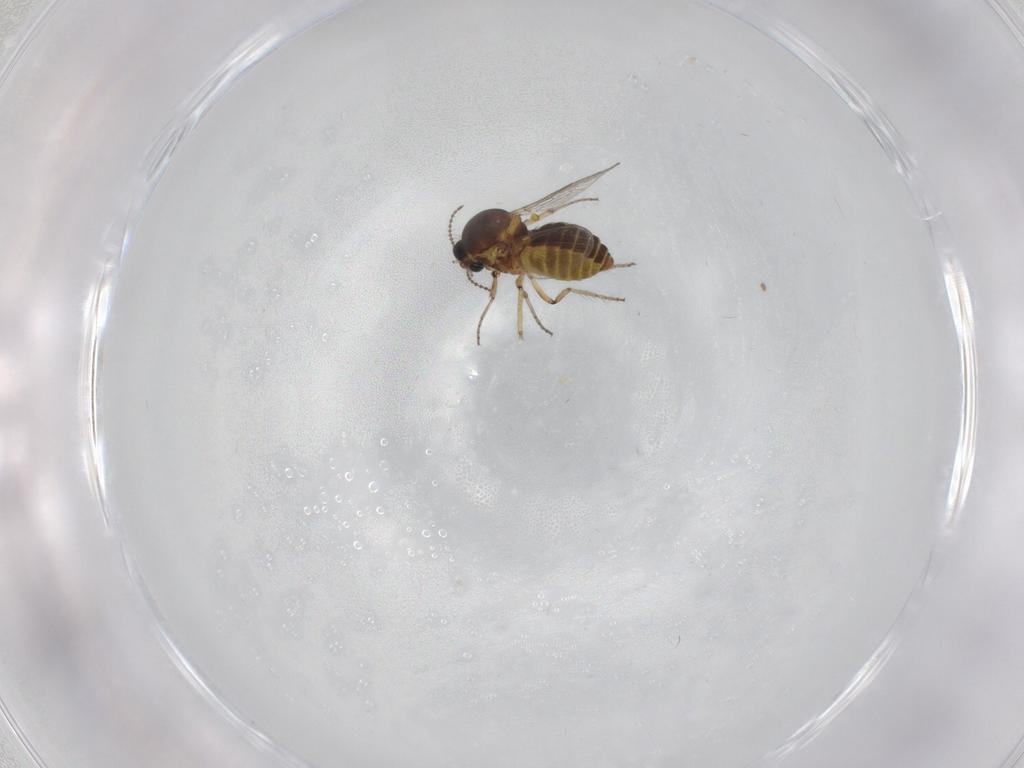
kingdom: Animalia
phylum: Arthropoda
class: Insecta
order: Diptera
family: Ceratopogonidae
